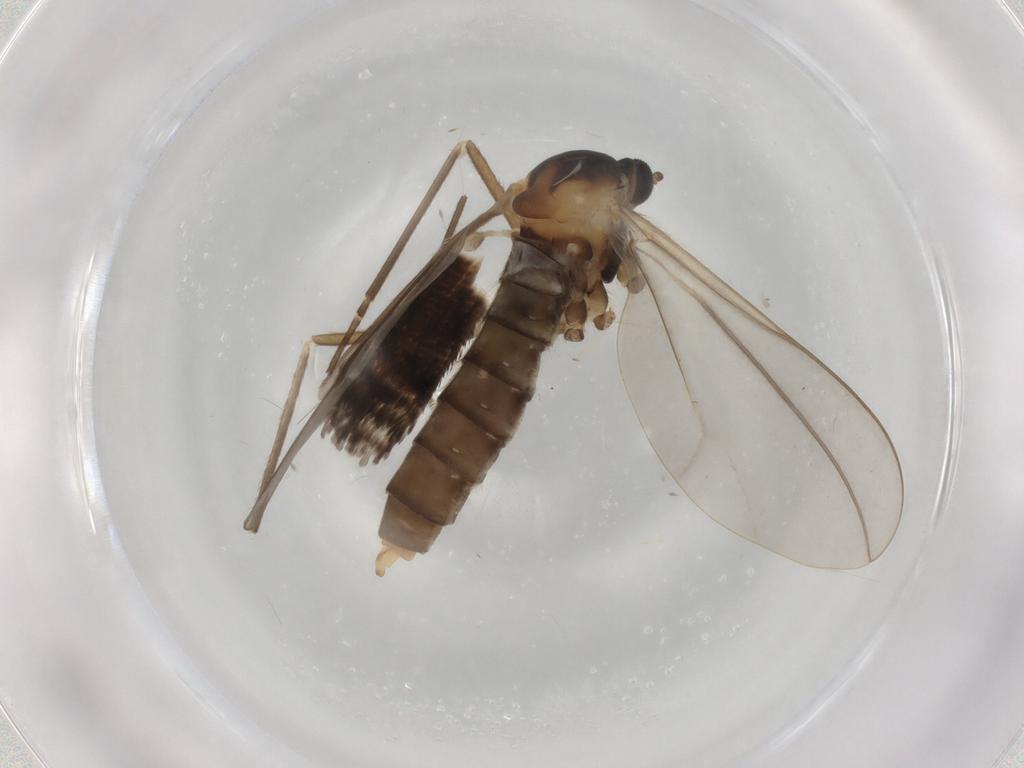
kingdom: Animalia
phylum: Arthropoda
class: Insecta
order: Diptera
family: Cecidomyiidae
